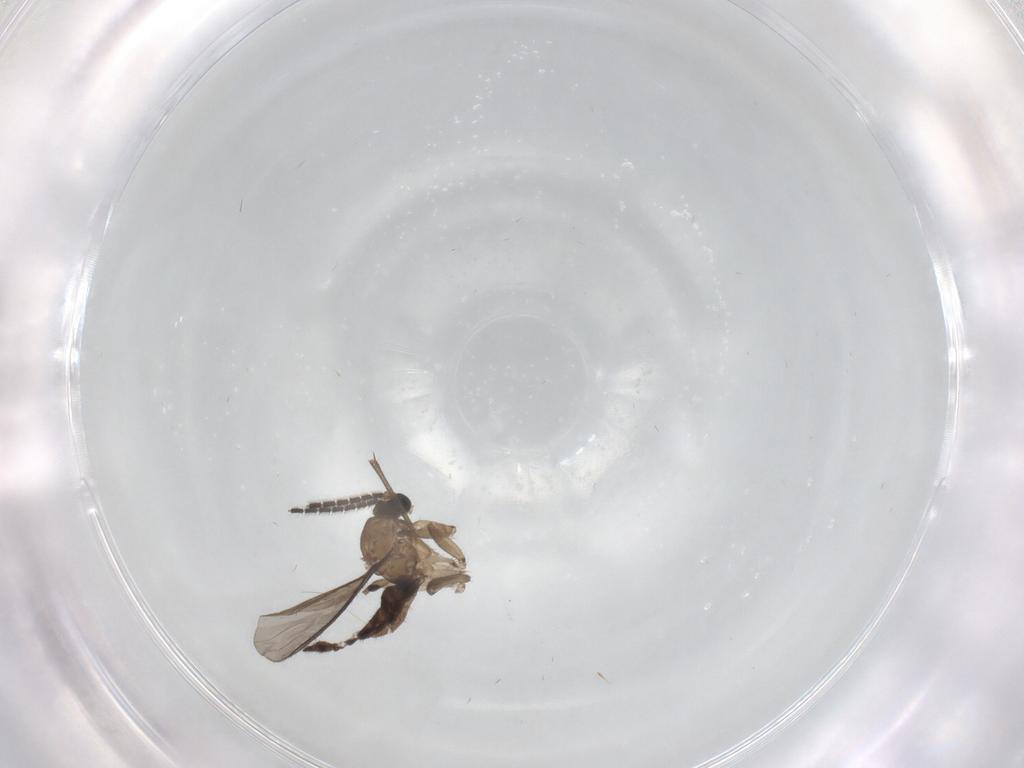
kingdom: Animalia
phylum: Arthropoda
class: Insecta
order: Diptera
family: Sciaridae
